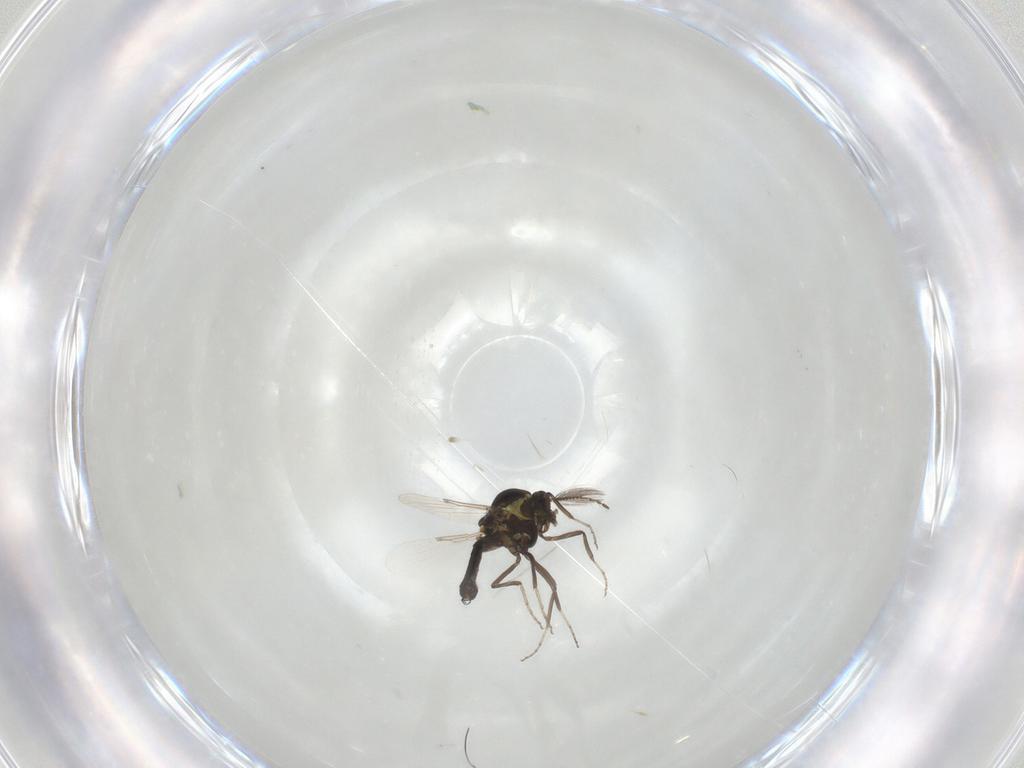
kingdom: Animalia
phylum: Arthropoda
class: Insecta
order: Diptera
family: Ceratopogonidae
